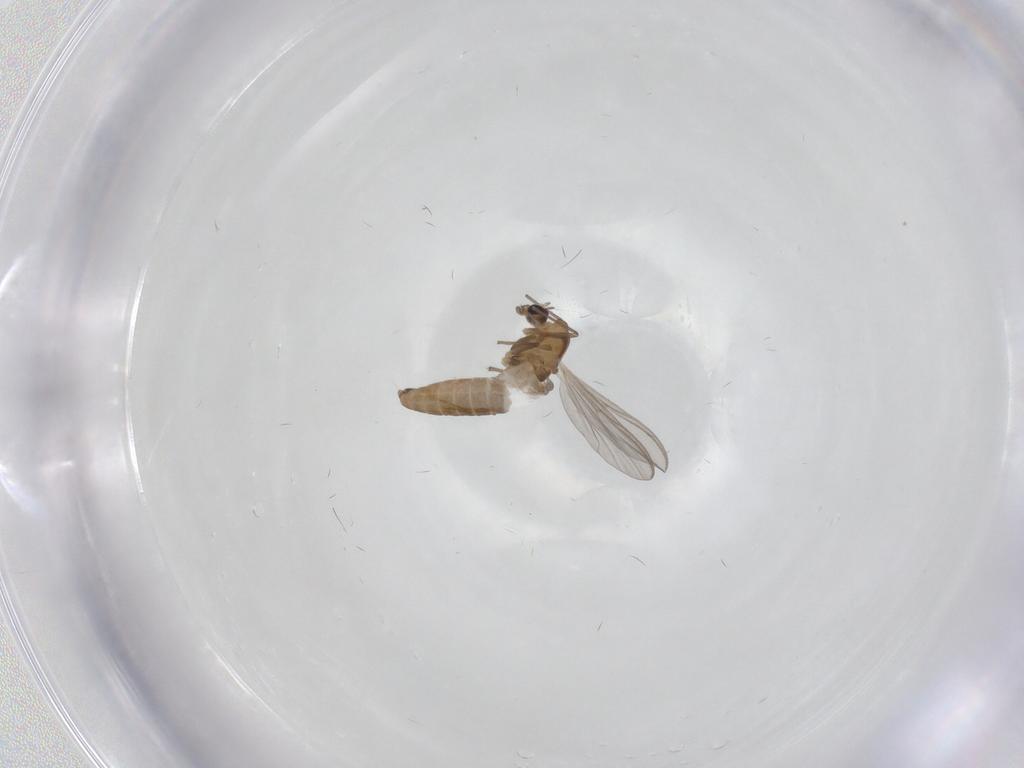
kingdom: Animalia
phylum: Arthropoda
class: Insecta
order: Diptera
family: Chironomidae
